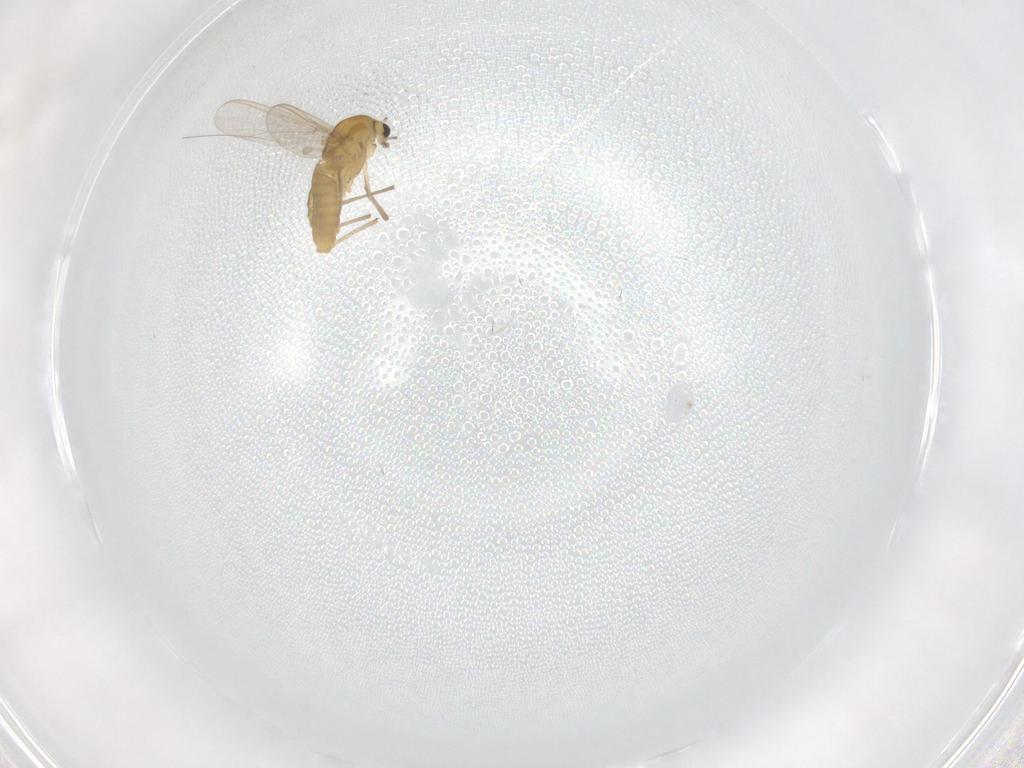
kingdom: Animalia
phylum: Arthropoda
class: Insecta
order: Diptera
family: Chironomidae
